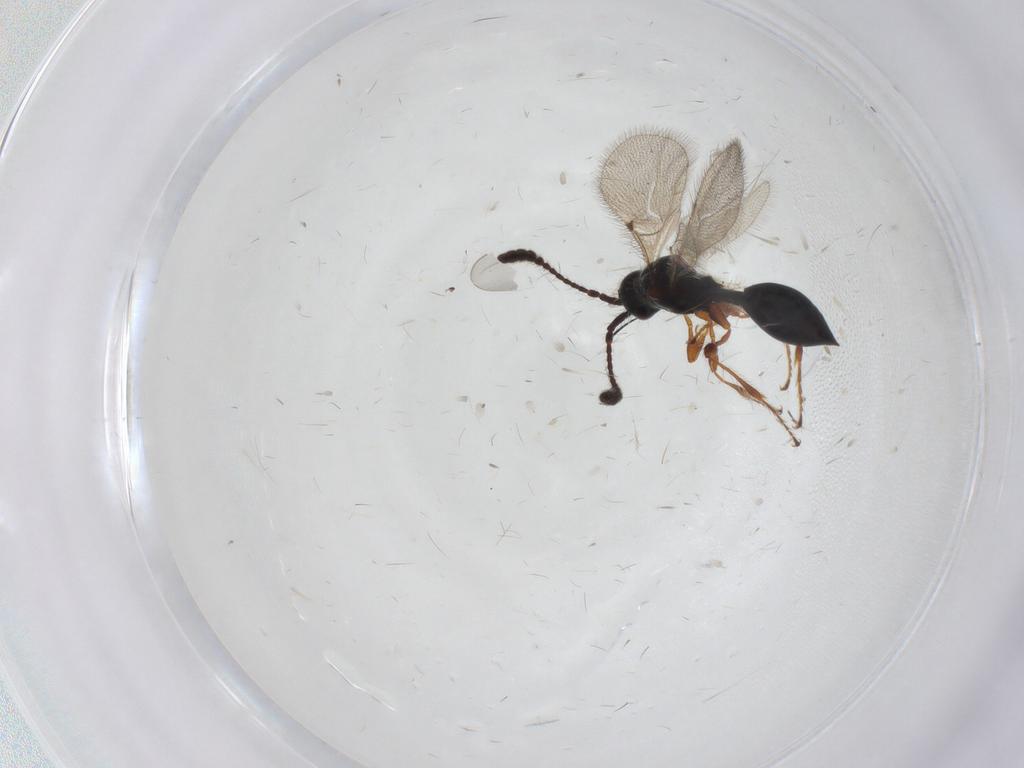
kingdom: Animalia
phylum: Arthropoda
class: Insecta
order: Hymenoptera
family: Diapriidae
